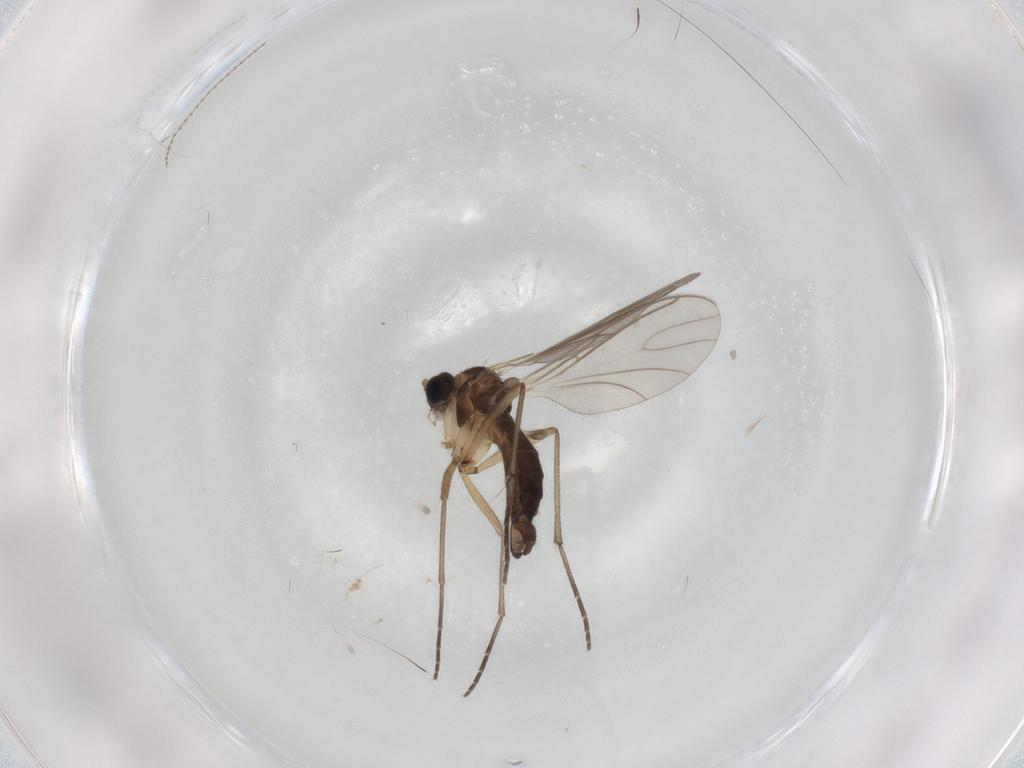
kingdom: Animalia
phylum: Arthropoda
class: Insecta
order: Diptera
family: Sciaridae
